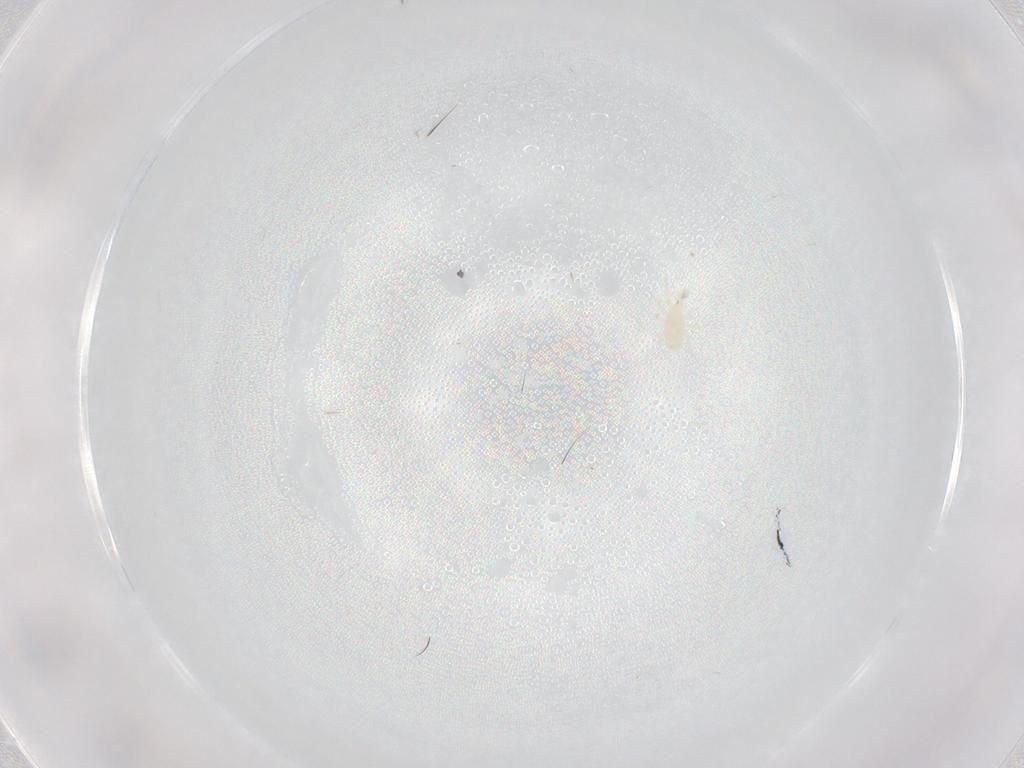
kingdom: Animalia
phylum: Arthropoda
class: Arachnida
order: Mesostigmata
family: Phytoseiidae
